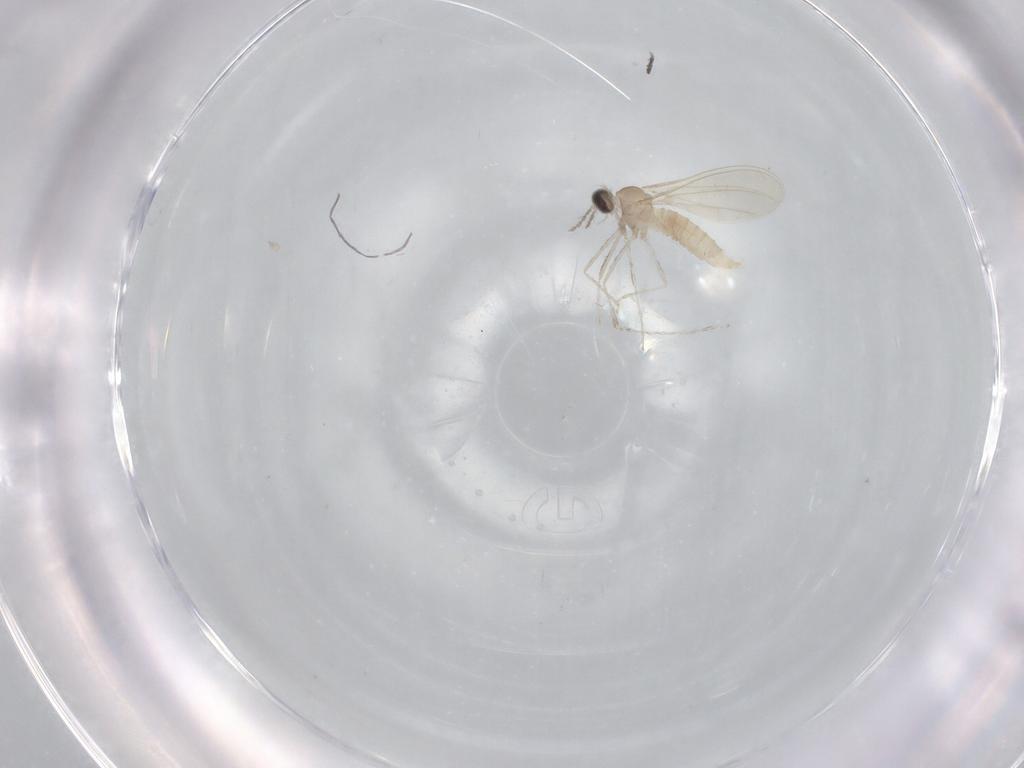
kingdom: Animalia
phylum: Arthropoda
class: Insecta
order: Diptera
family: Cecidomyiidae
